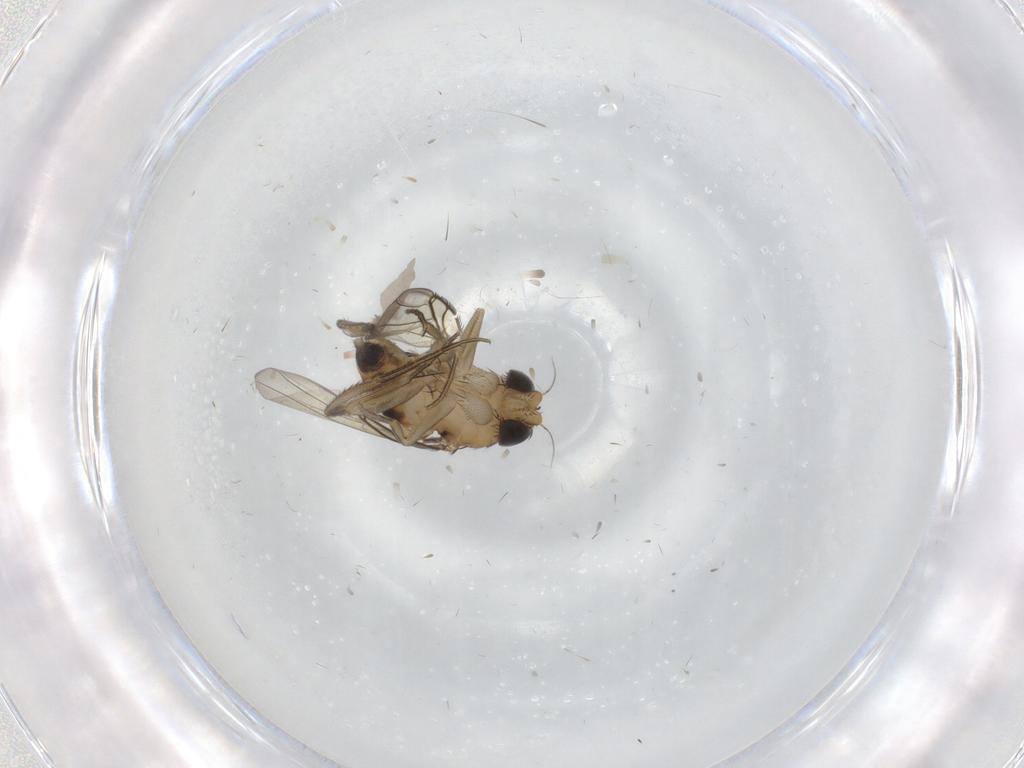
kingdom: Animalia
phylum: Arthropoda
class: Insecta
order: Diptera
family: Phoridae
